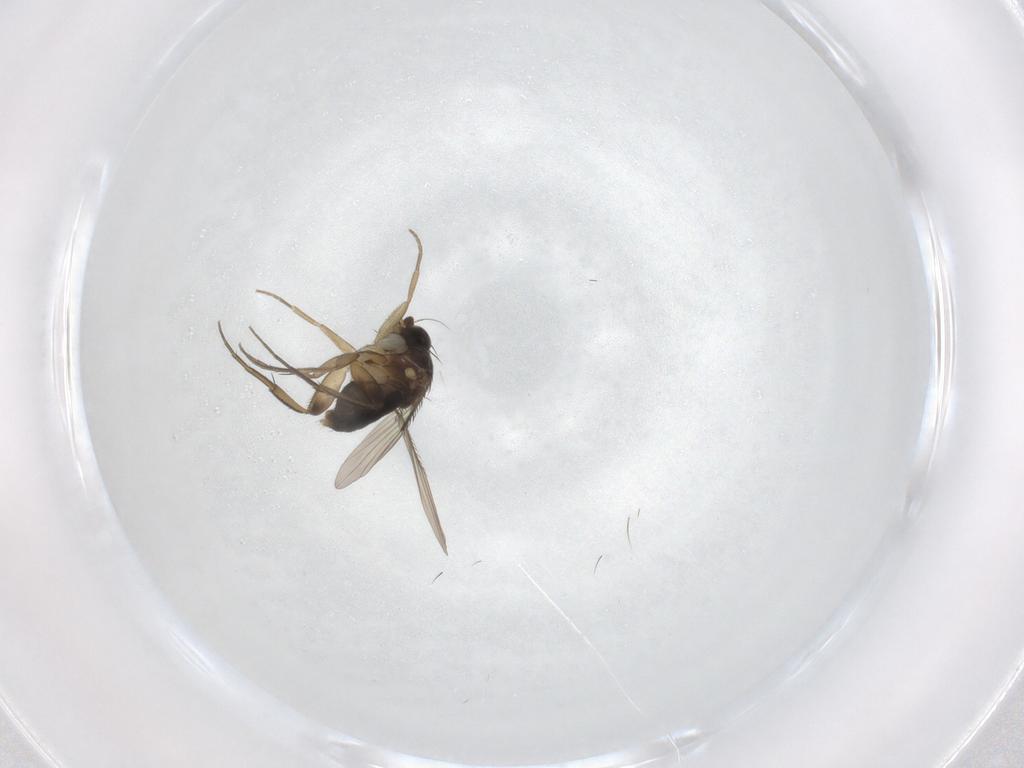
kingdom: Animalia
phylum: Arthropoda
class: Insecta
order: Diptera
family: Phoridae
